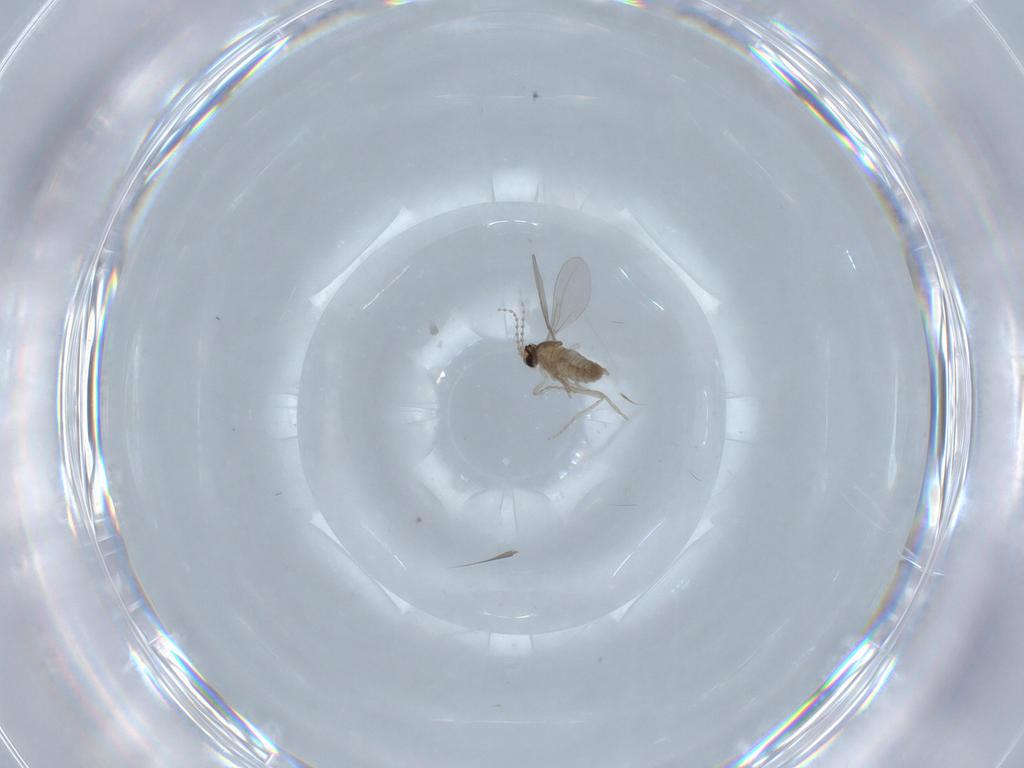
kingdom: Animalia
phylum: Arthropoda
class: Insecta
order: Diptera
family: Cecidomyiidae
